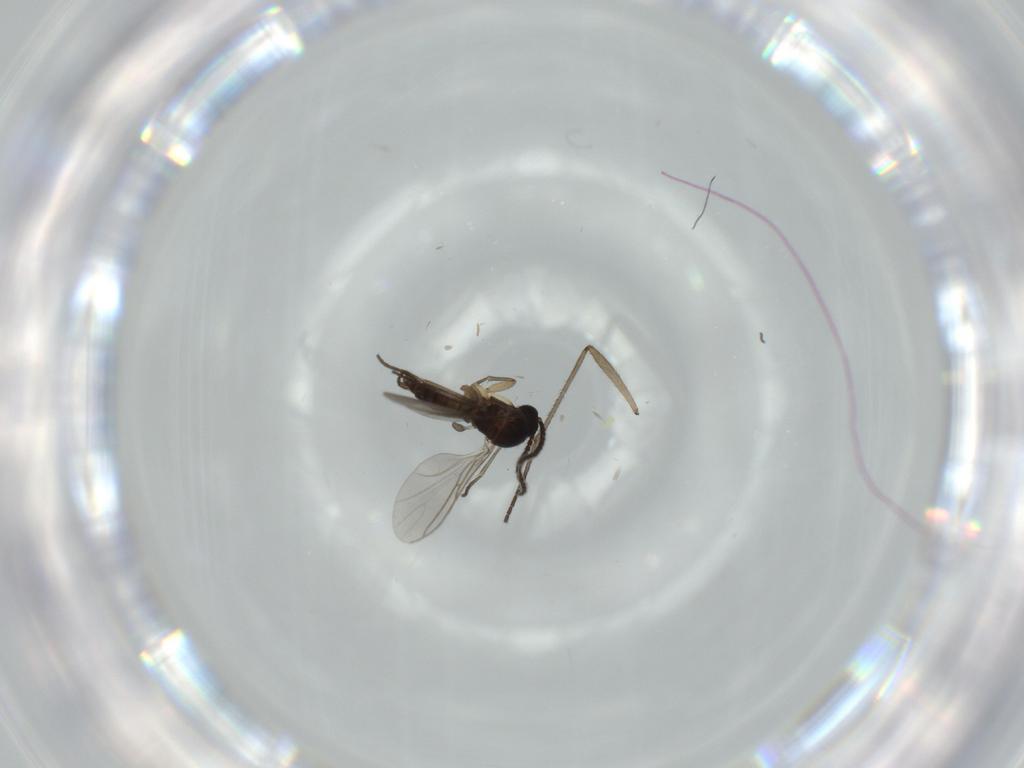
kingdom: Animalia
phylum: Arthropoda
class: Insecta
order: Diptera
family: Sciaridae
